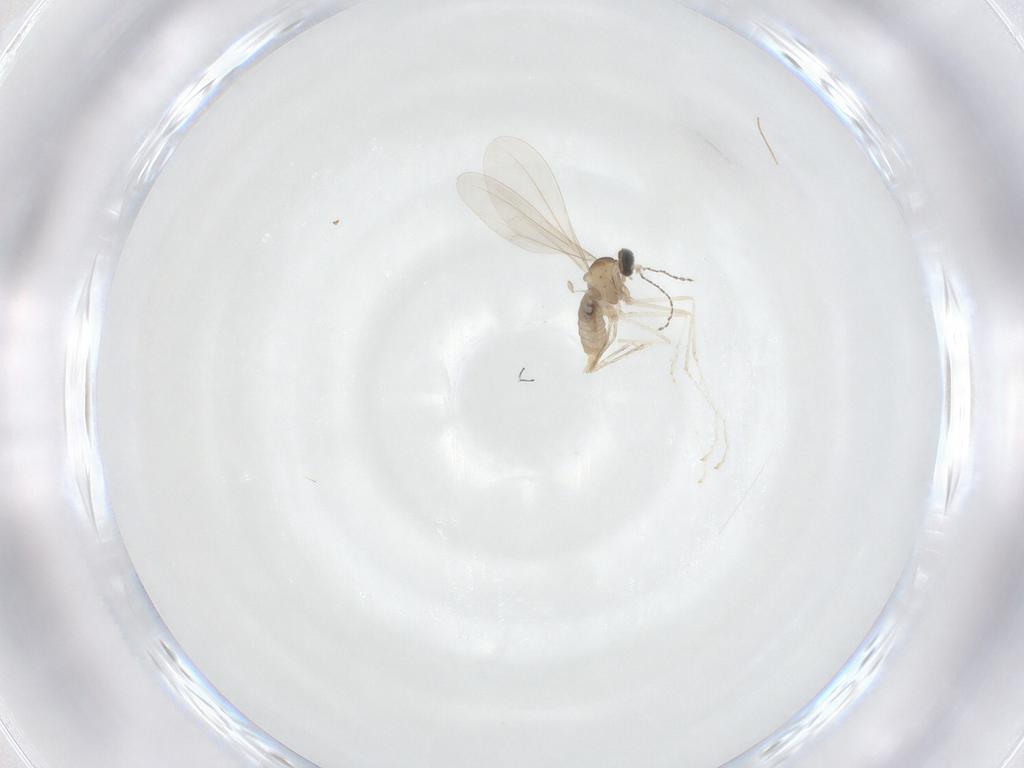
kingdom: Animalia
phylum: Arthropoda
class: Insecta
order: Diptera
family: Cecidomyiidae
